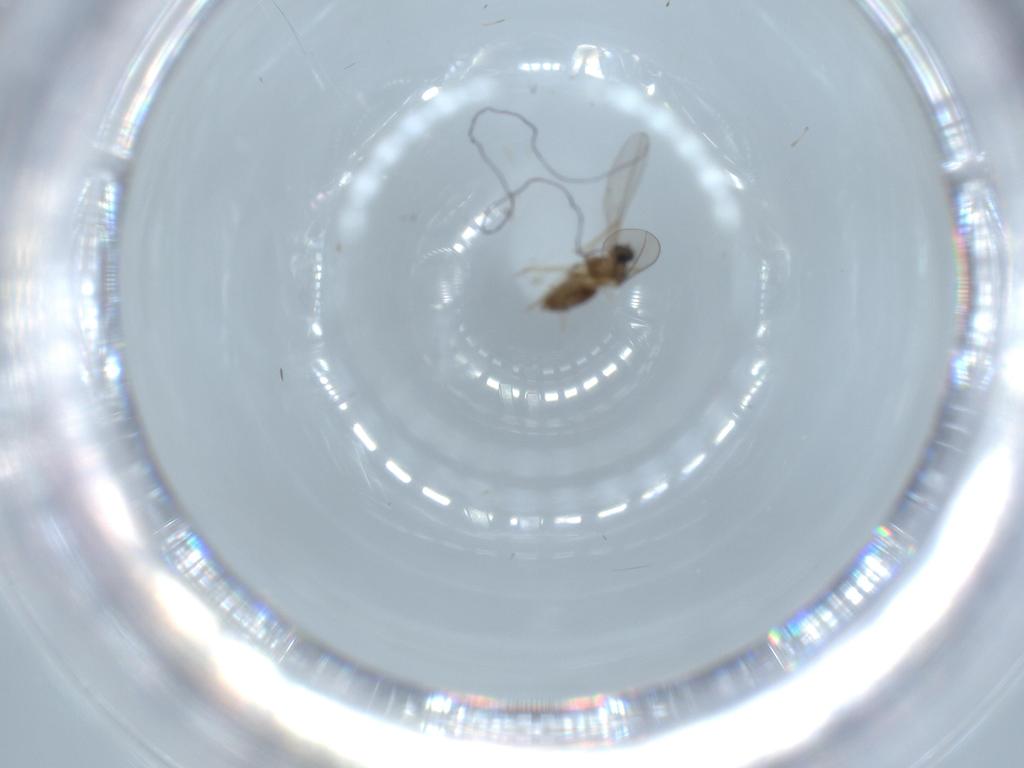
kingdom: Animalia
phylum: Arthropoda
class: Insecta
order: Diptera
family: Cecidomyiidae
